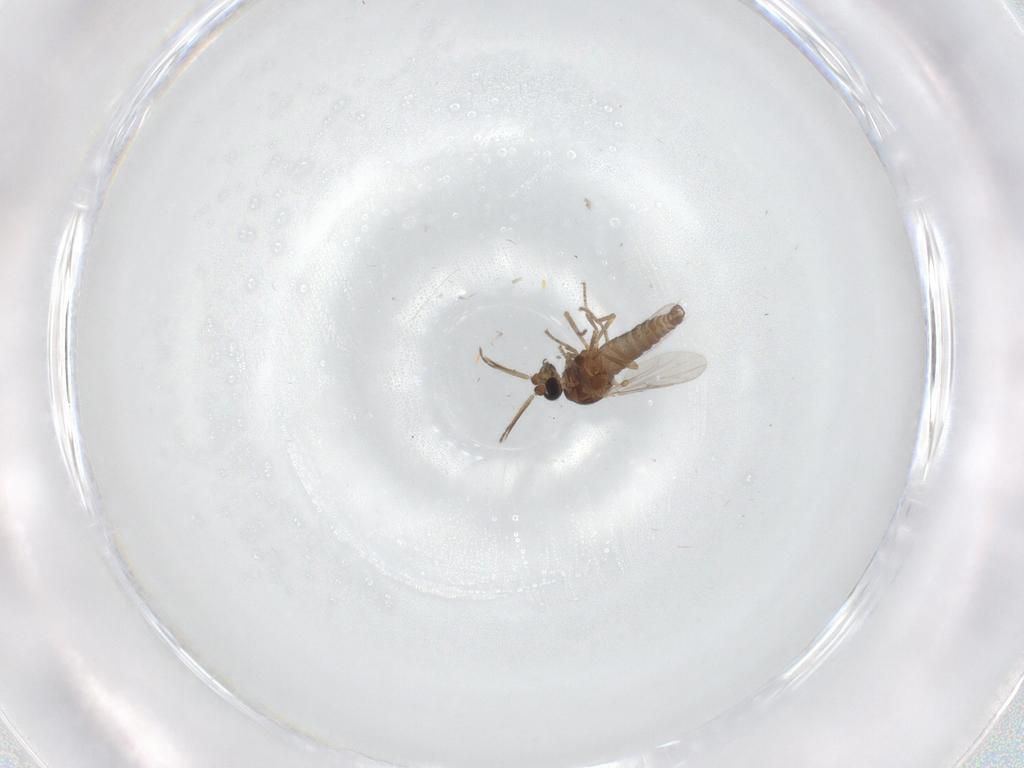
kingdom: Animalia
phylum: Arthropoda
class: Insecta
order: Diptera
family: Ceratopogonidae
